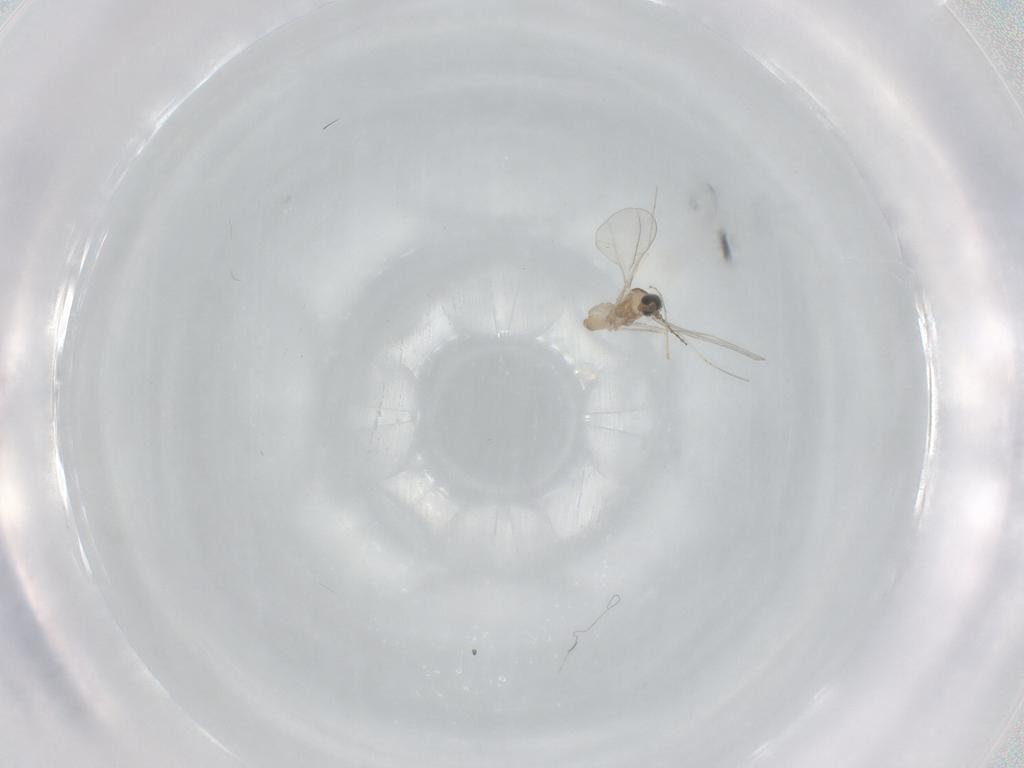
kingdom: Animalia
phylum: Arthropoda
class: Insecta
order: Diptera
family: Cecidomyiidae
